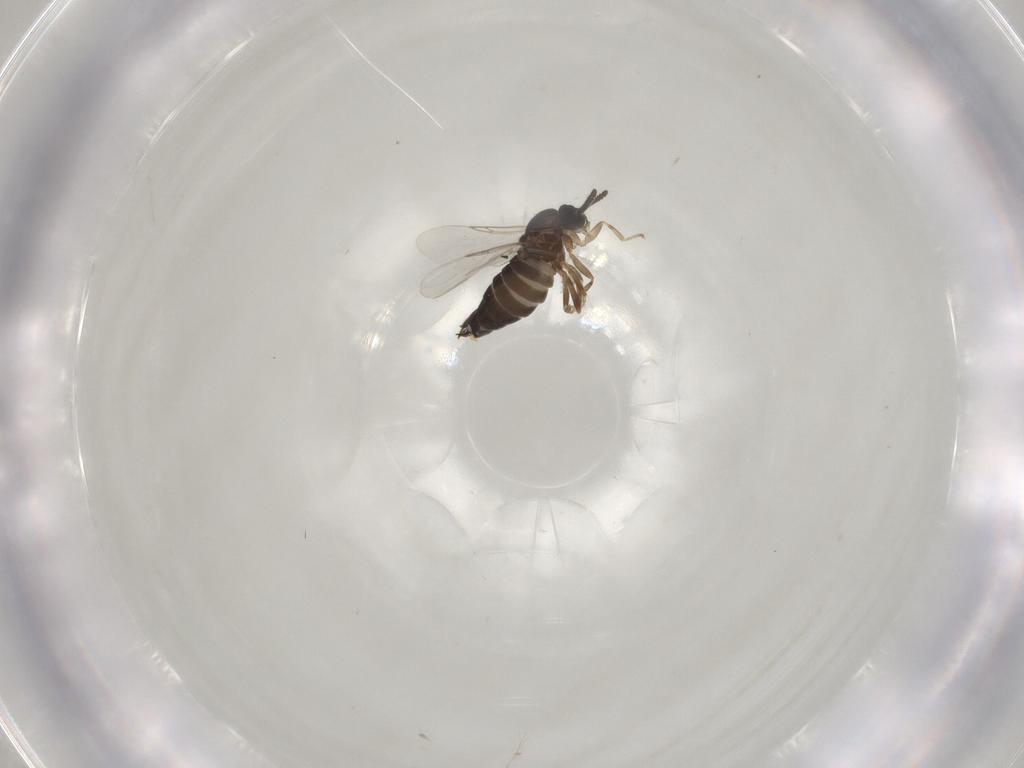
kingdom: Animalia
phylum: Arthropoda
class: Insecta
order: Diptera
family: Scatopsidae
